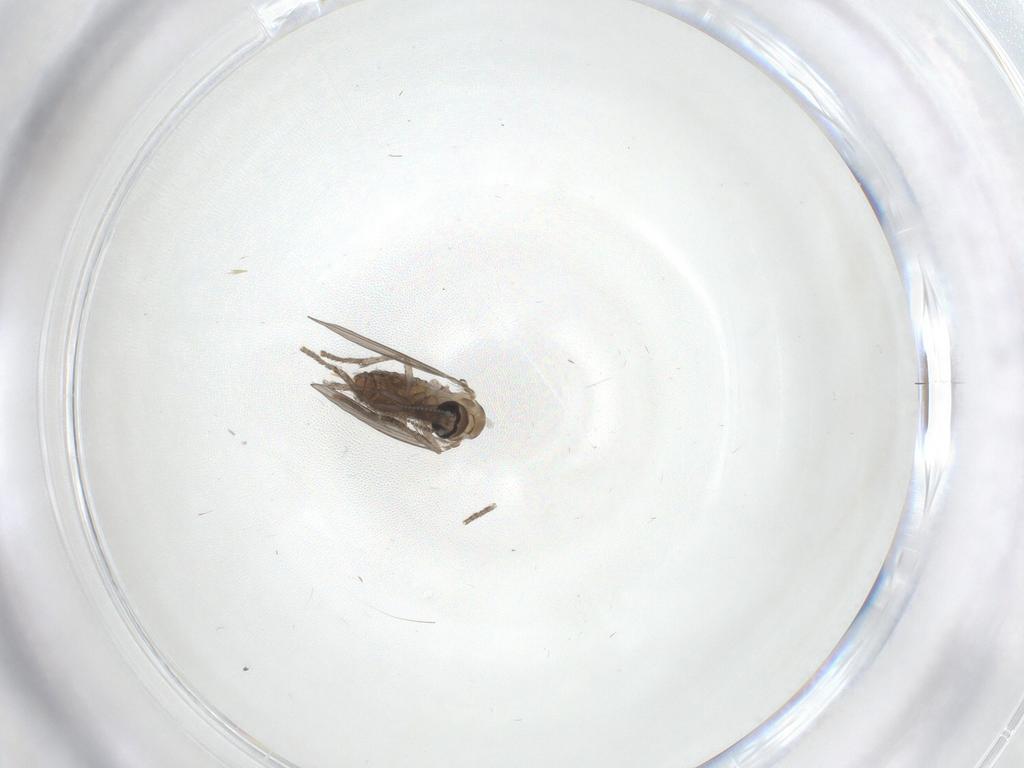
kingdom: Animalia
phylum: Arthropoda
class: Insecta
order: Diptera
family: Psychodidae
